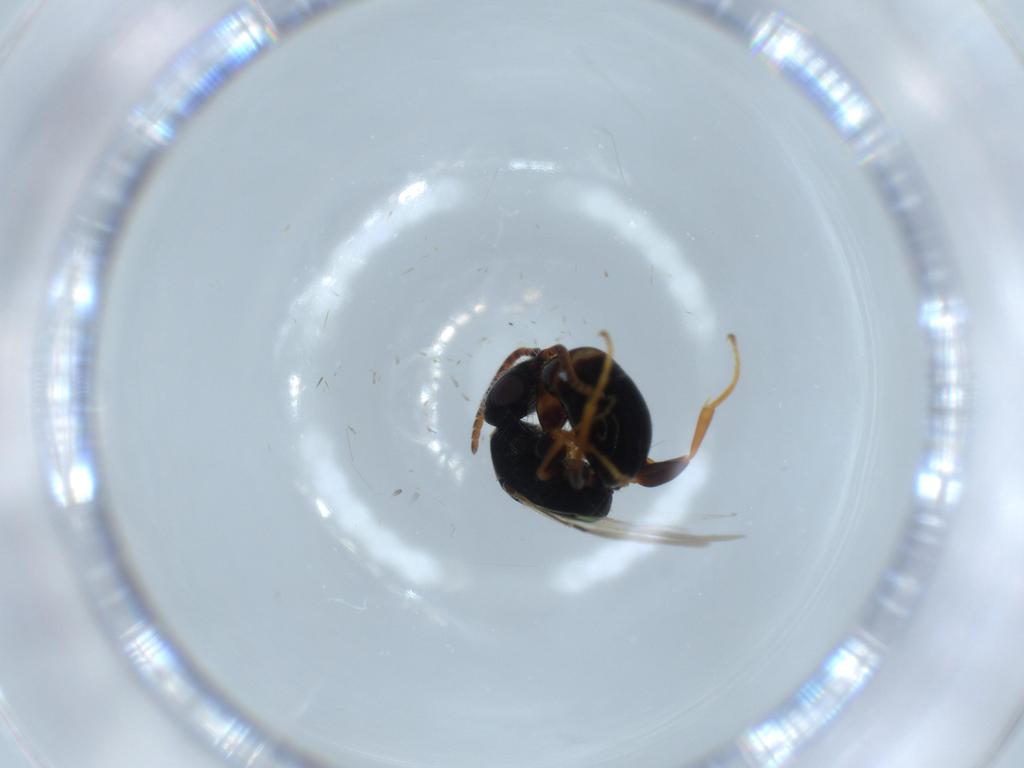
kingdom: Animalia
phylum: Arthropoda
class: Insecta
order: Hymenoptera
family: Bethylidae
